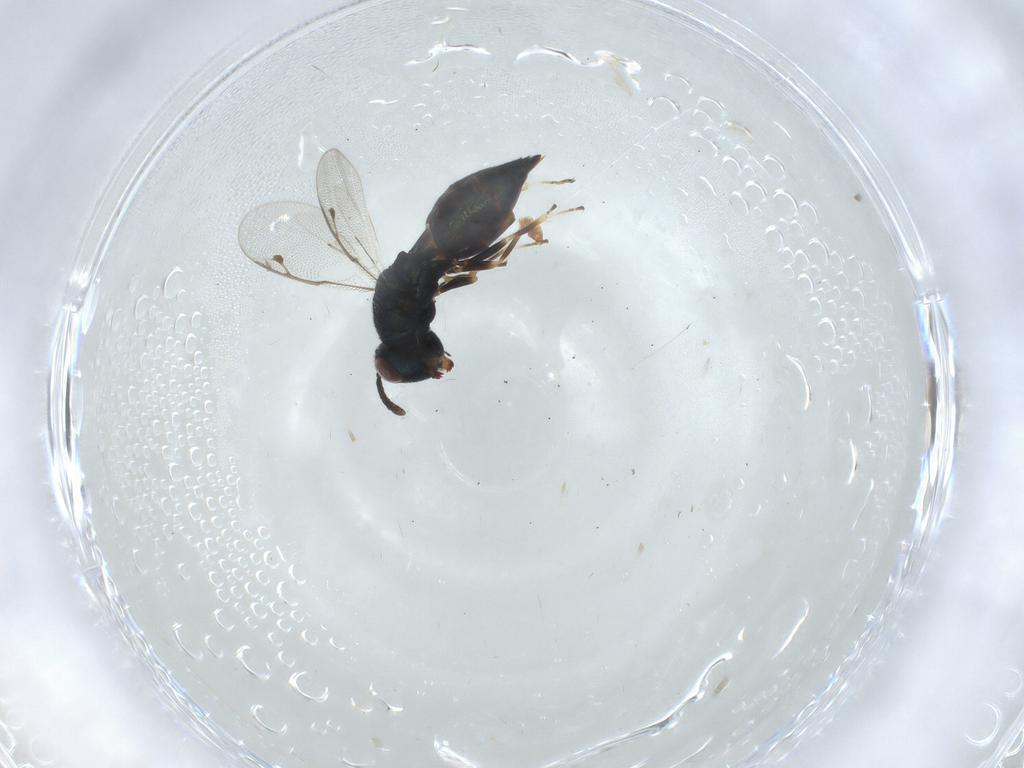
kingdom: Animalia
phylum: Arthropoda
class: Insecta
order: Hymenoptera
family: Pteromalidae
